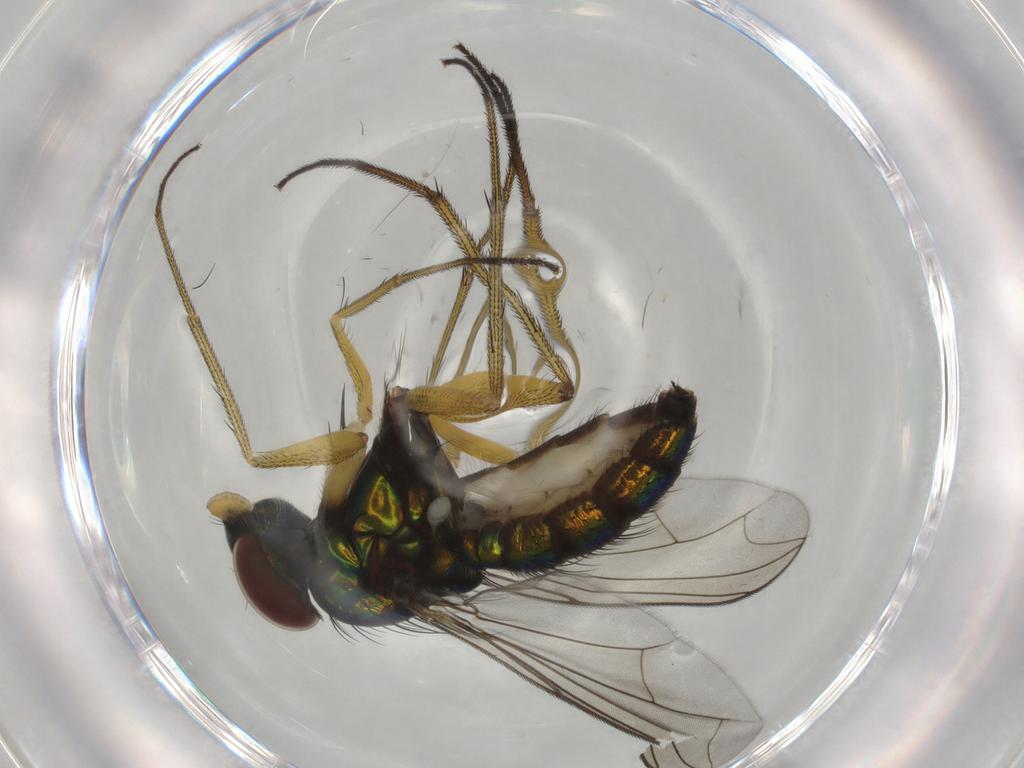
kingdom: Animalia
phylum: Arthropoda
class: Insecta
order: Diptera
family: Dolichopodidae
